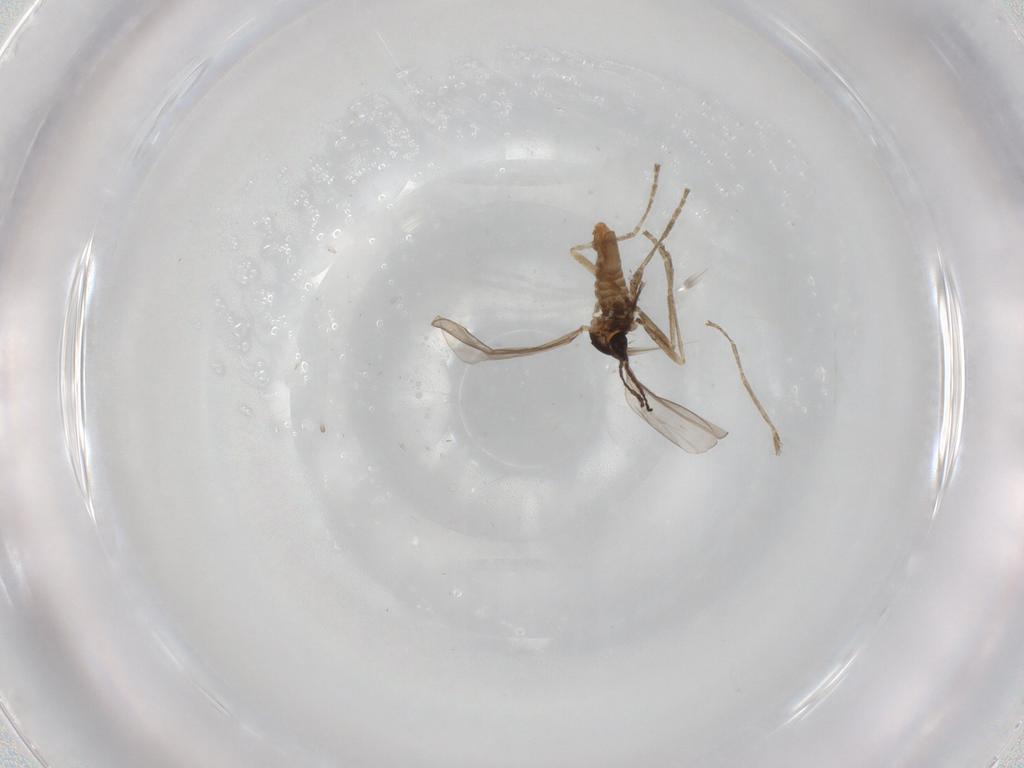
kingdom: Animalia
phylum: Arthropoda
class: Insecta
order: Diptera
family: Cecidomyiidae
